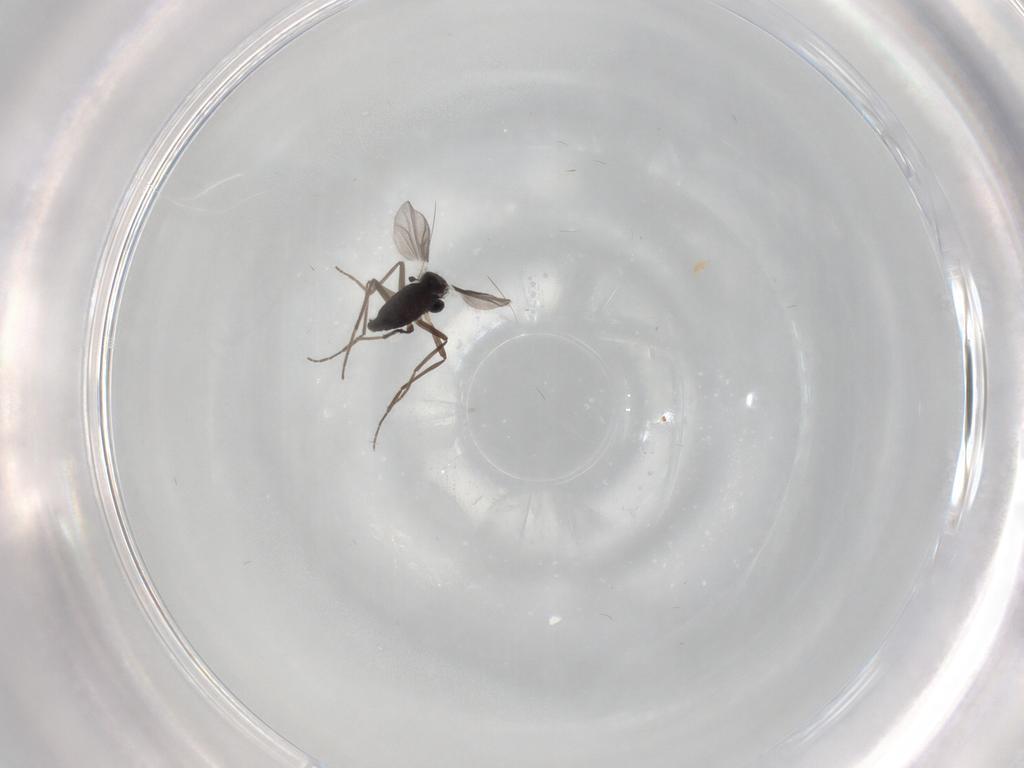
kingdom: Animalia
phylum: Arthropoda
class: Insecta
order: Diptera
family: Chironomidae
